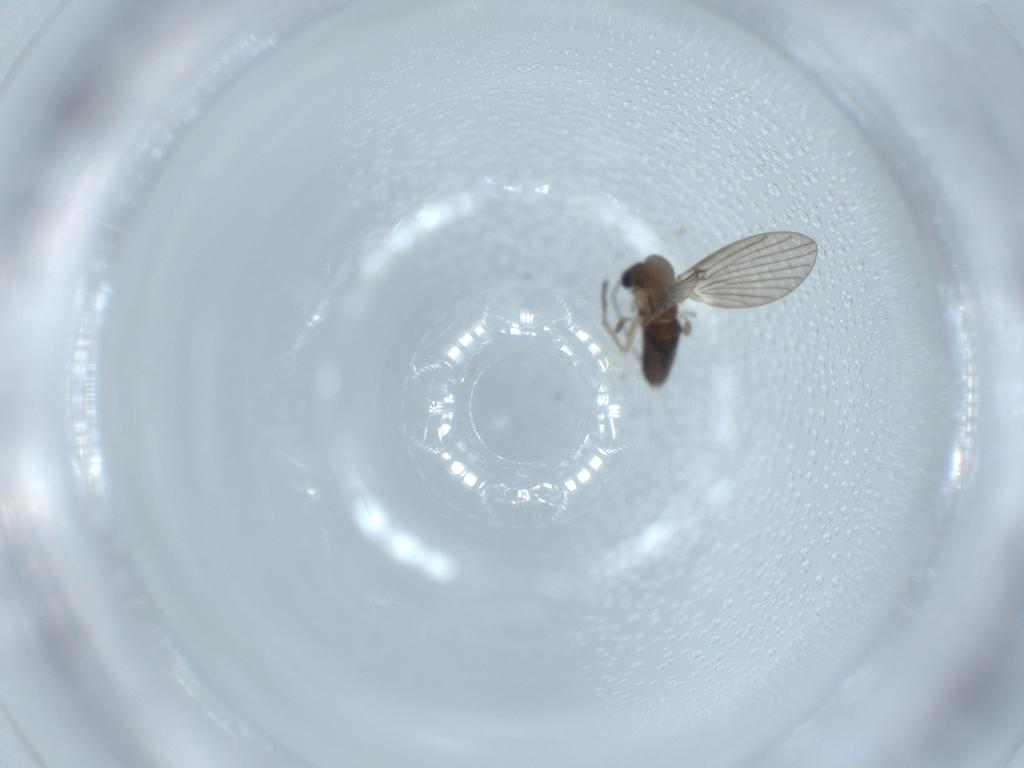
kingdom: Animalia
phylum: Arthropoda
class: Insecta
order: Diptera
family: Psychodidae
